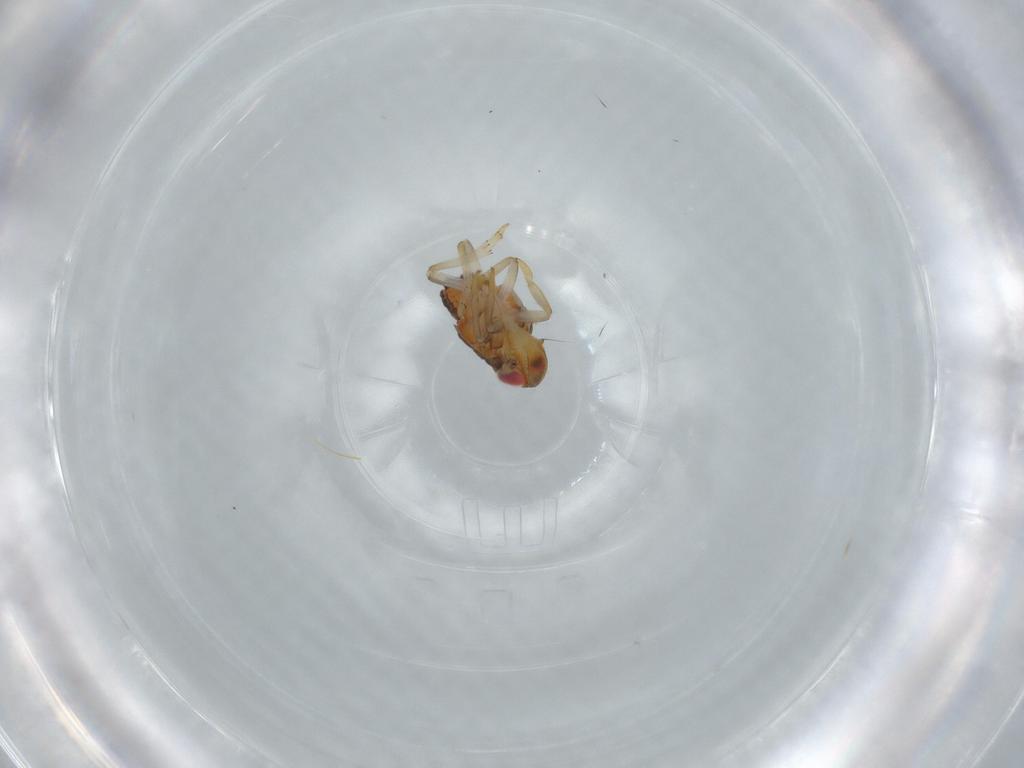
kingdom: Animalia
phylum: Arthropoda
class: Insecta
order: Hemiptera
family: Issidae
